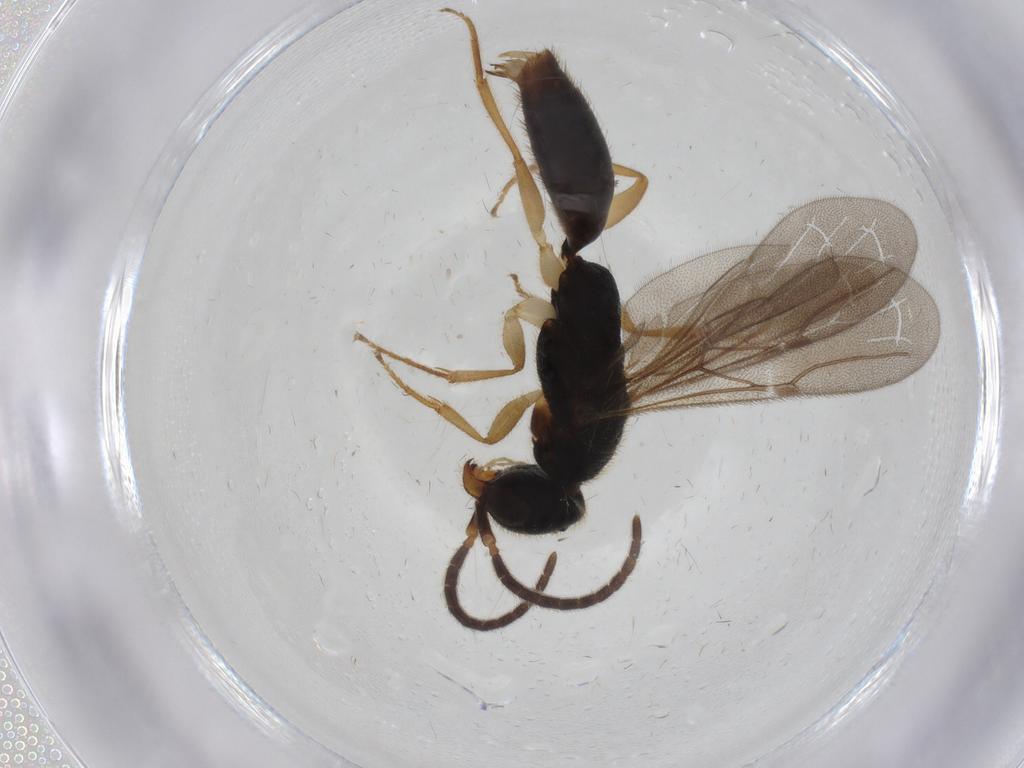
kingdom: Animalia
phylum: Arthropoda
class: Insecta
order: Hymenoptera
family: Bethylidae
